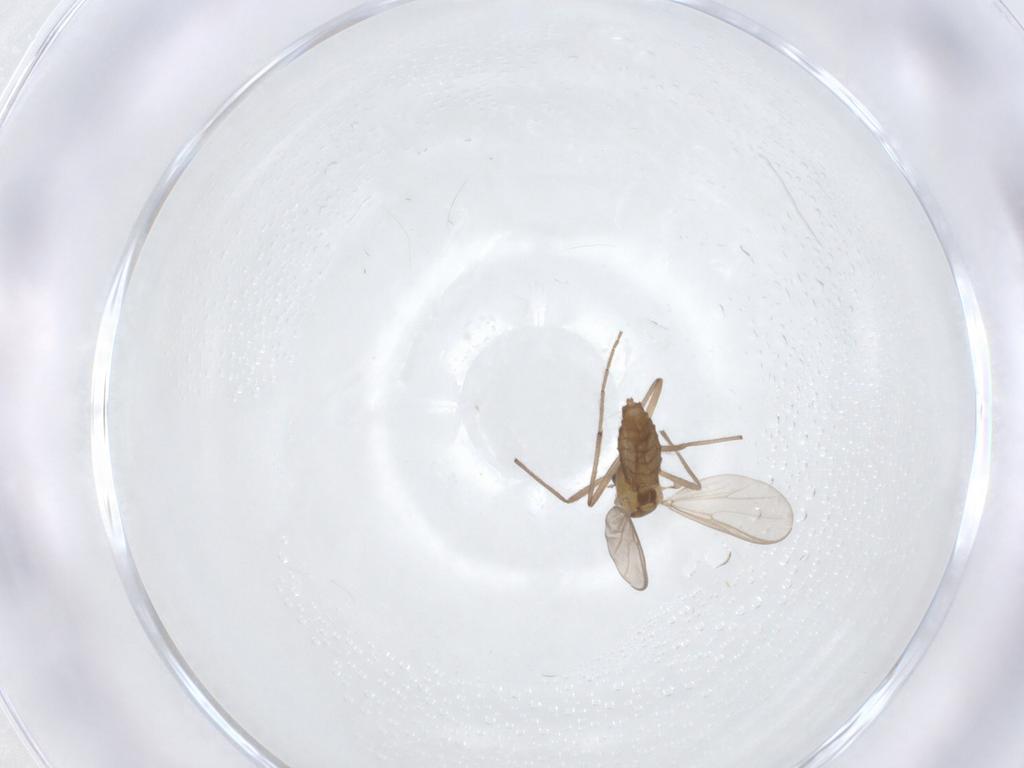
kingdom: Animalia
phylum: Arthropoda
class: Insecta
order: Diptera
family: Chironomidae
